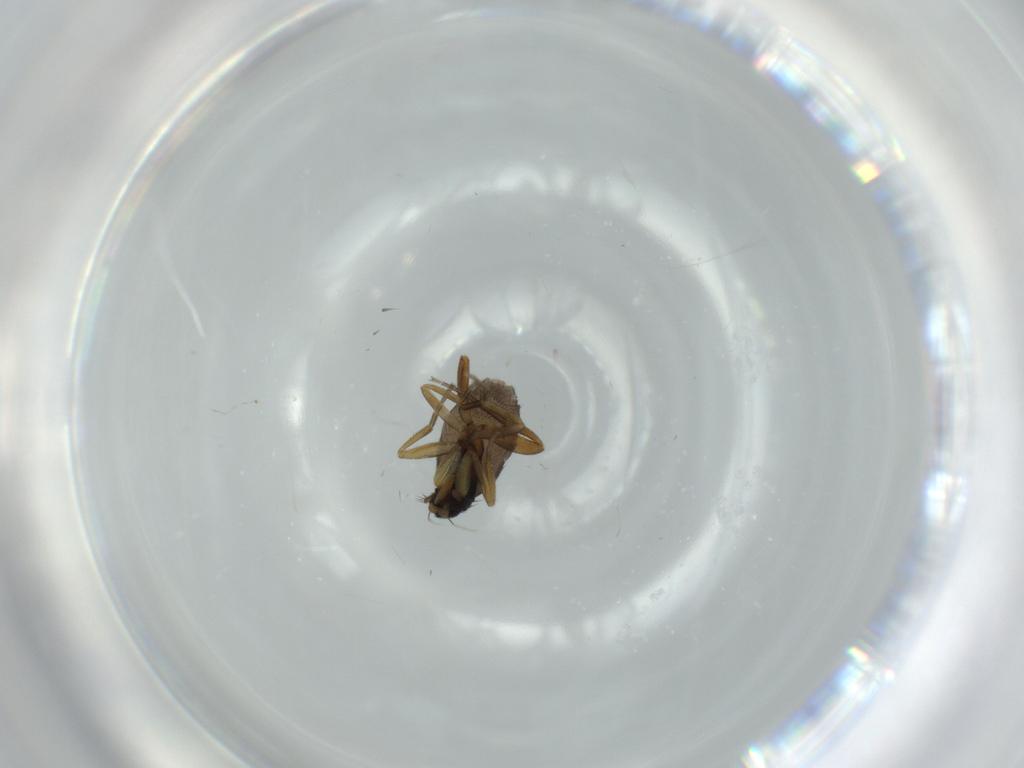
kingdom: Animalia
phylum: Arthropoda
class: Insecta
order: Diptera
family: Phoridae
